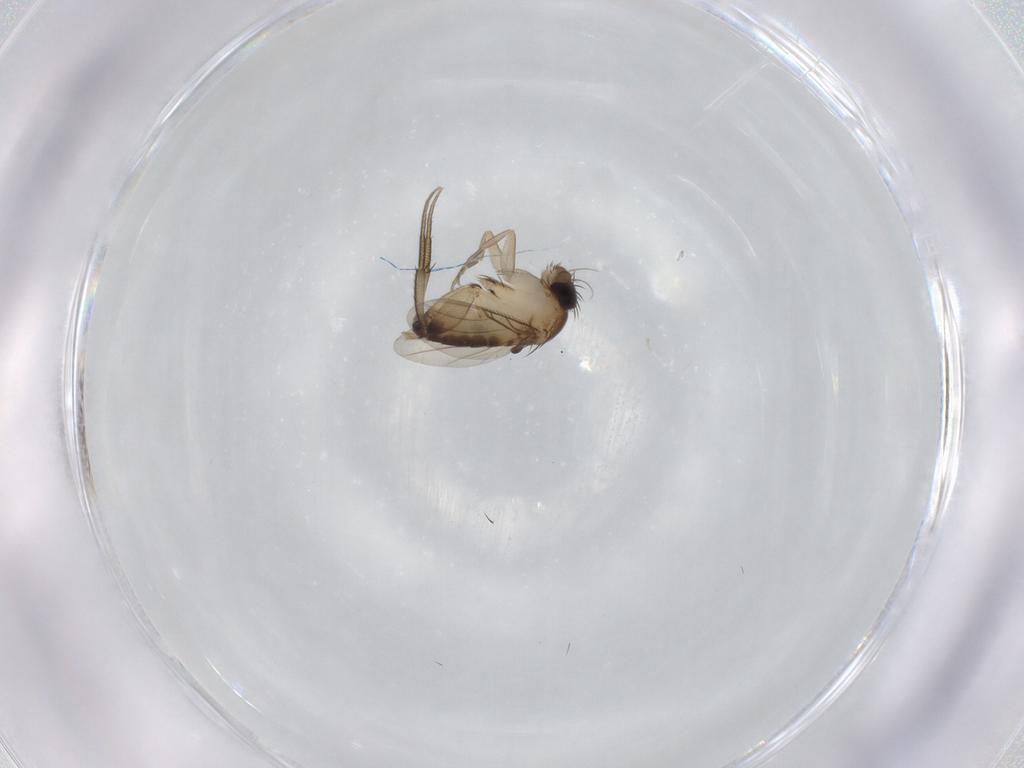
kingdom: Animalia
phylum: Arthropoda
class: Insecta
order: Diptera
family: Phoridae
